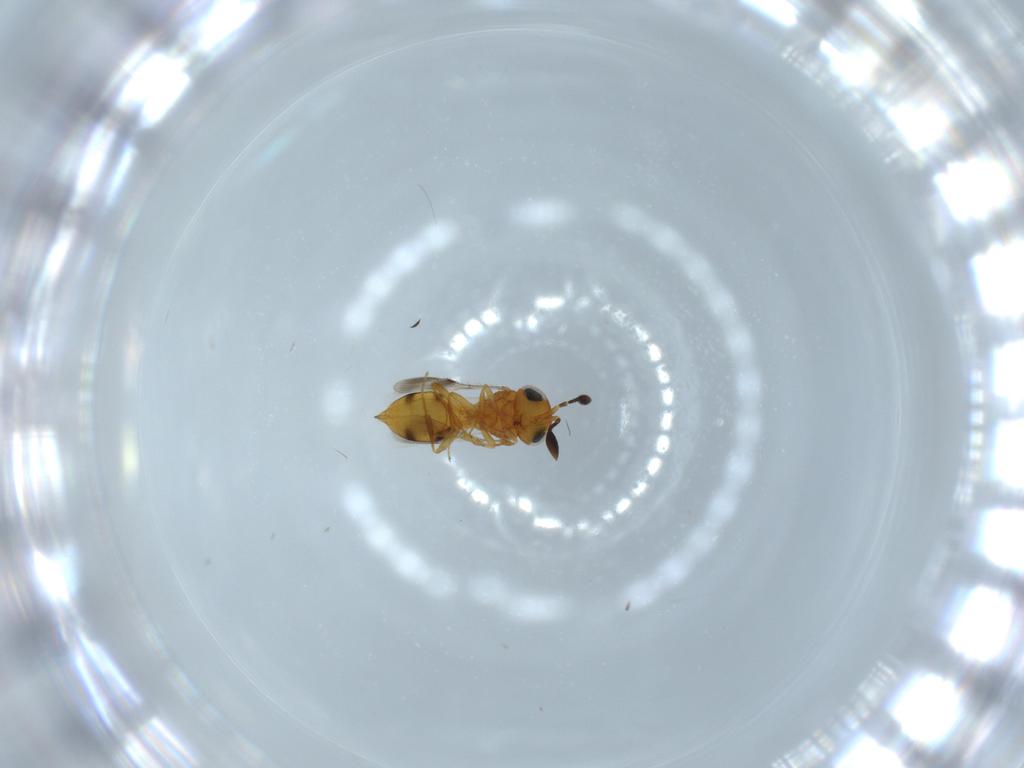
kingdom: Animalia
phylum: Arthropoda
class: Insecta
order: Hymenoptera
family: Scelionidae
